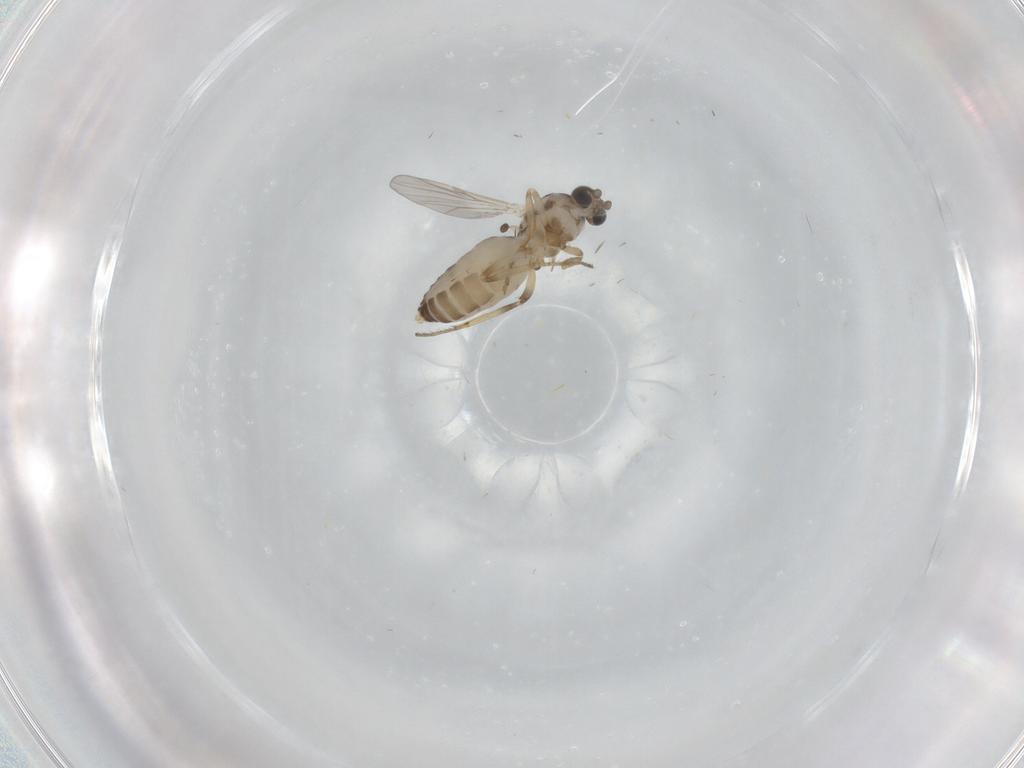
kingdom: Animalia
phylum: Arthropoda
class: Insecta
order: Diptera
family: Ceratopogonidae
